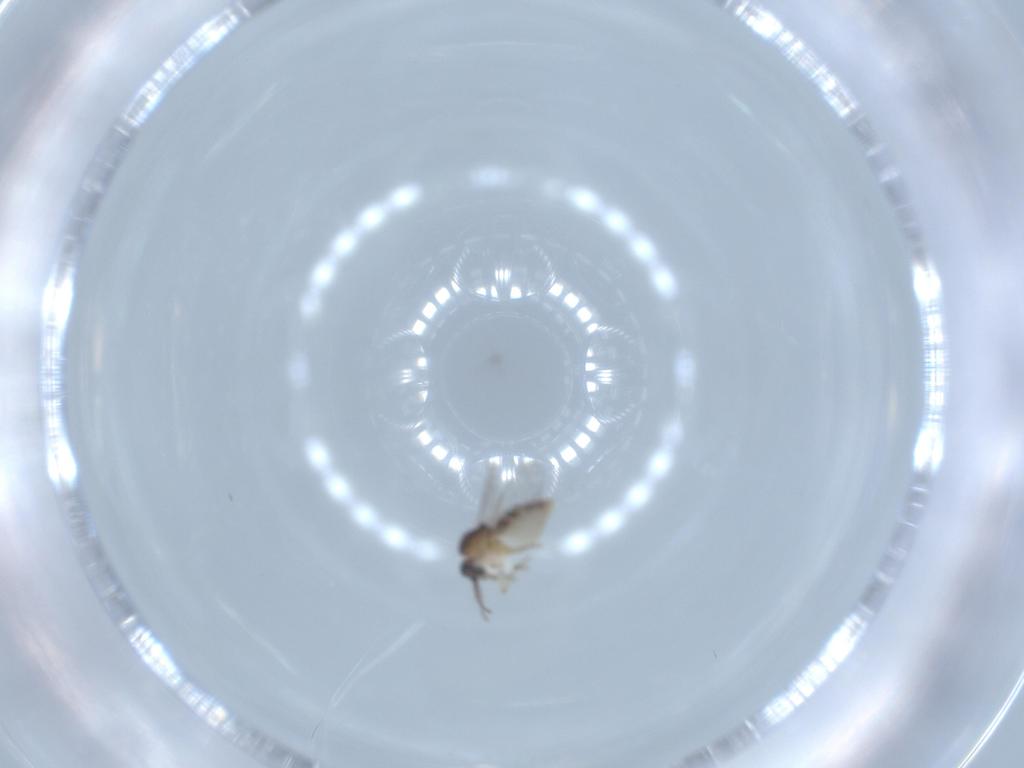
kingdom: Animalia
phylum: Arthropoda
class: Insecta
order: Diptera
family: Ceratopogonidae
